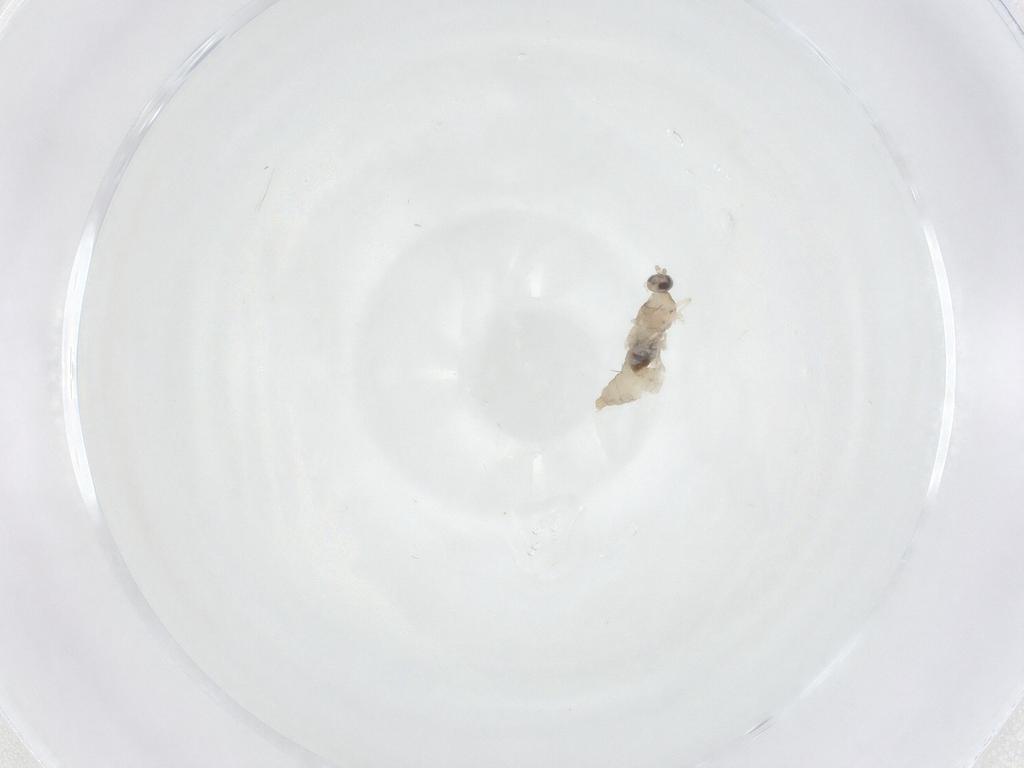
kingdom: Animalia
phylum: Arthropoda
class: Insecta
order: Diptera
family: Cecidomyiidae
